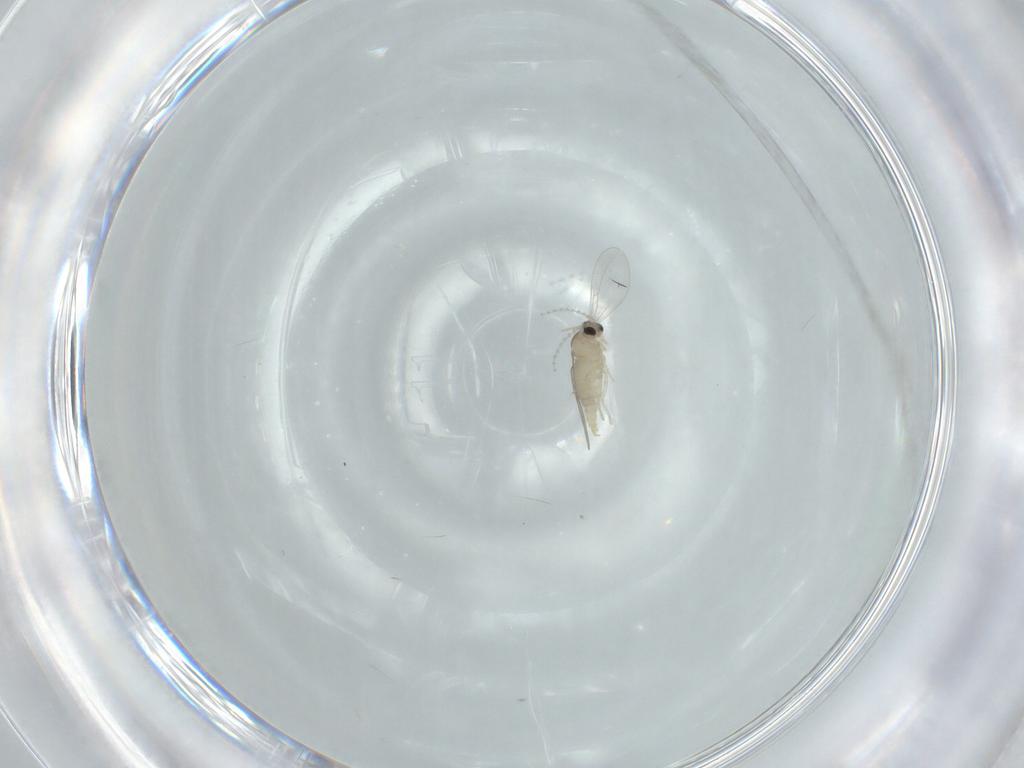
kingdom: Animalia
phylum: Arthropoda
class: Insecta
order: Diptera
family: Cecidomyiidae
